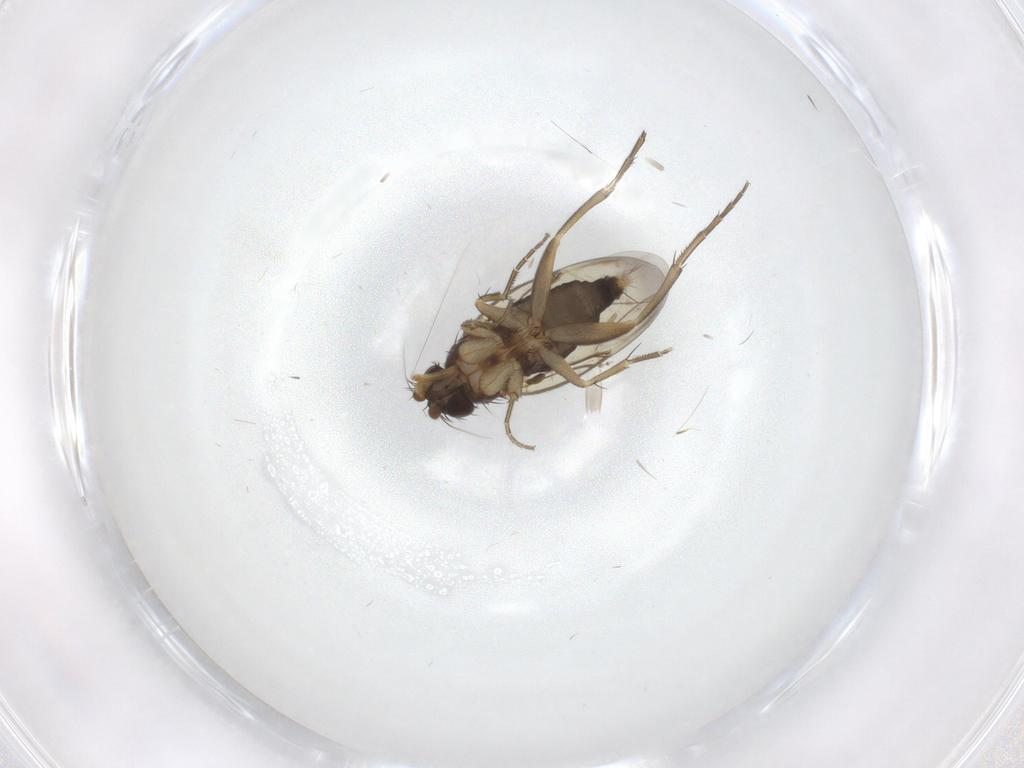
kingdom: Animalia
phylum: Arthropoda
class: Insecta
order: Diptera
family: Phoridae
